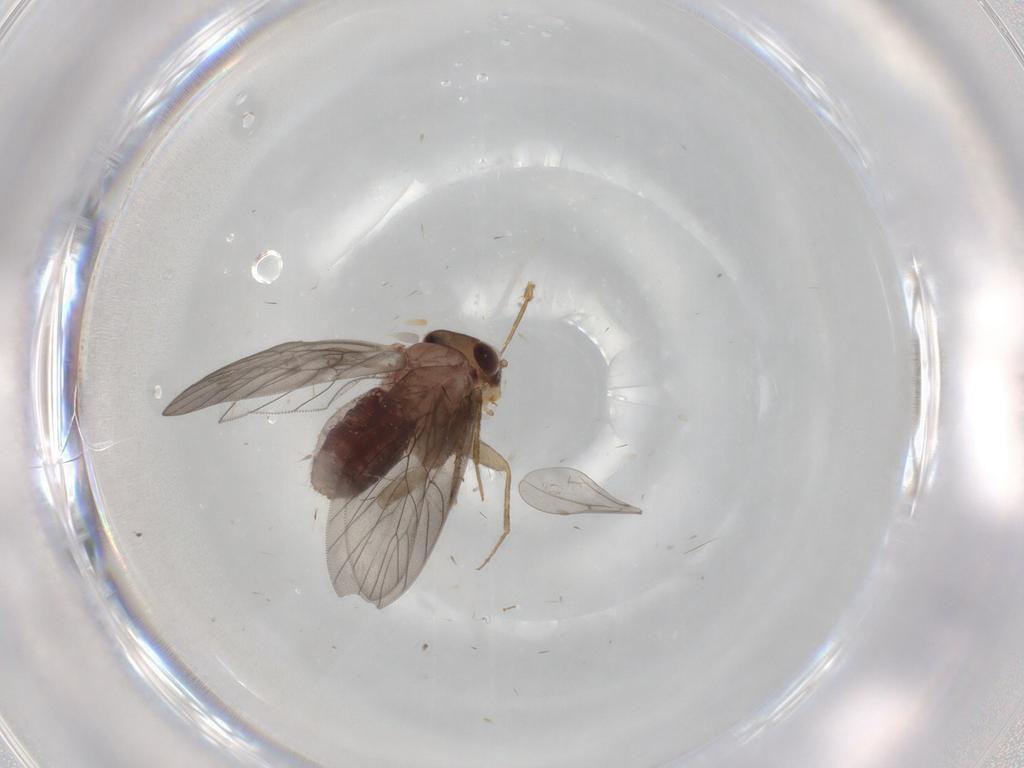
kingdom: Animalia
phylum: Arthropoda
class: Insecta
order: Psocodea
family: Lepidopsocidae
